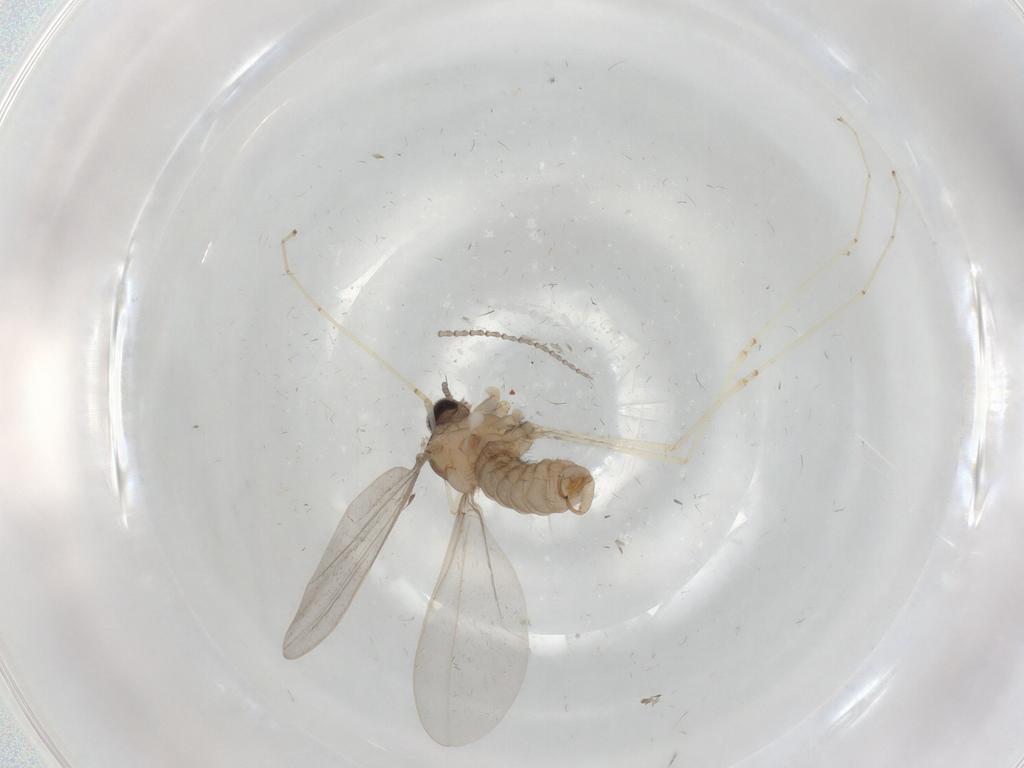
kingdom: Animalia
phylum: Arthropoda
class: Insecta
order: Diptera
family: Cecidomyiidae
